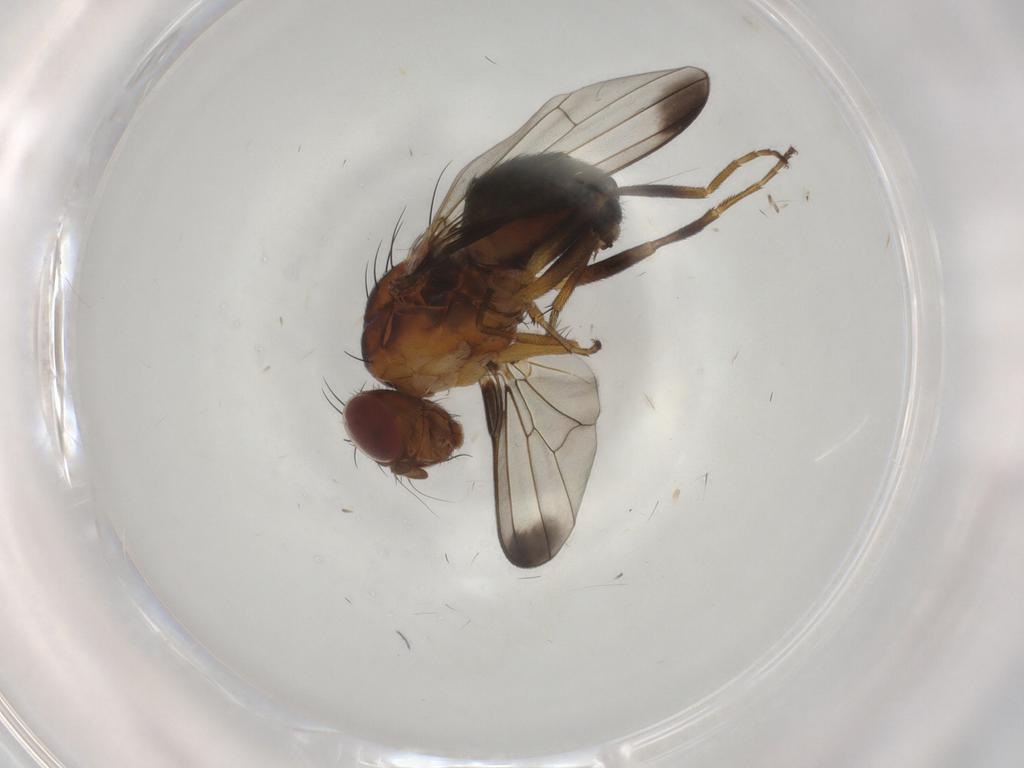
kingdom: Animalia
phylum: Arthropoda
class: Insecta
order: Diptera
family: Piophilidae
